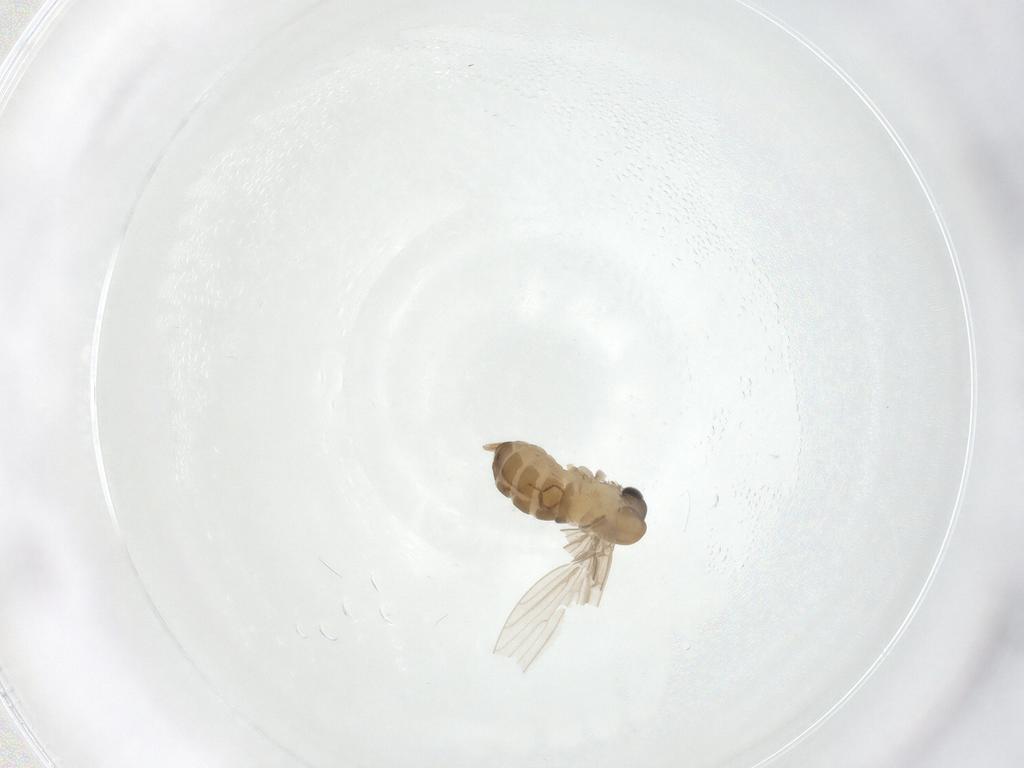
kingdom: Animalia
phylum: Arthropoda
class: Insecta
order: Diptera
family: Psychodidae
